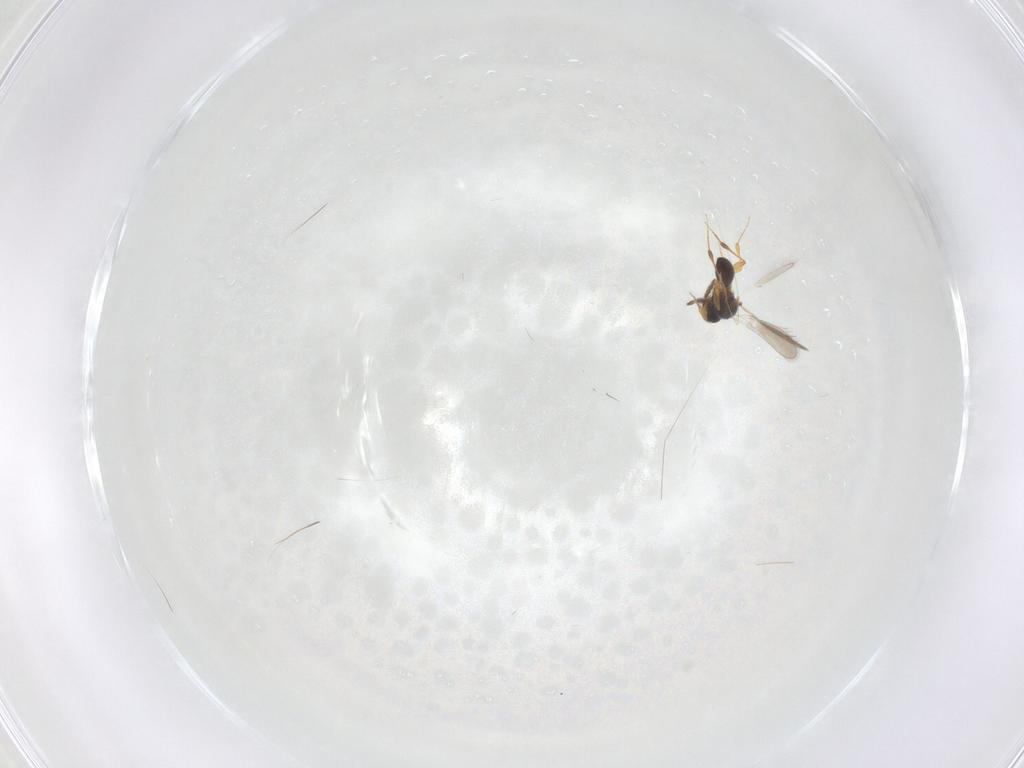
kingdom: Animalia
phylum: Arthropoda
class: Insecta
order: Hymenoptera
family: Platygastridae
